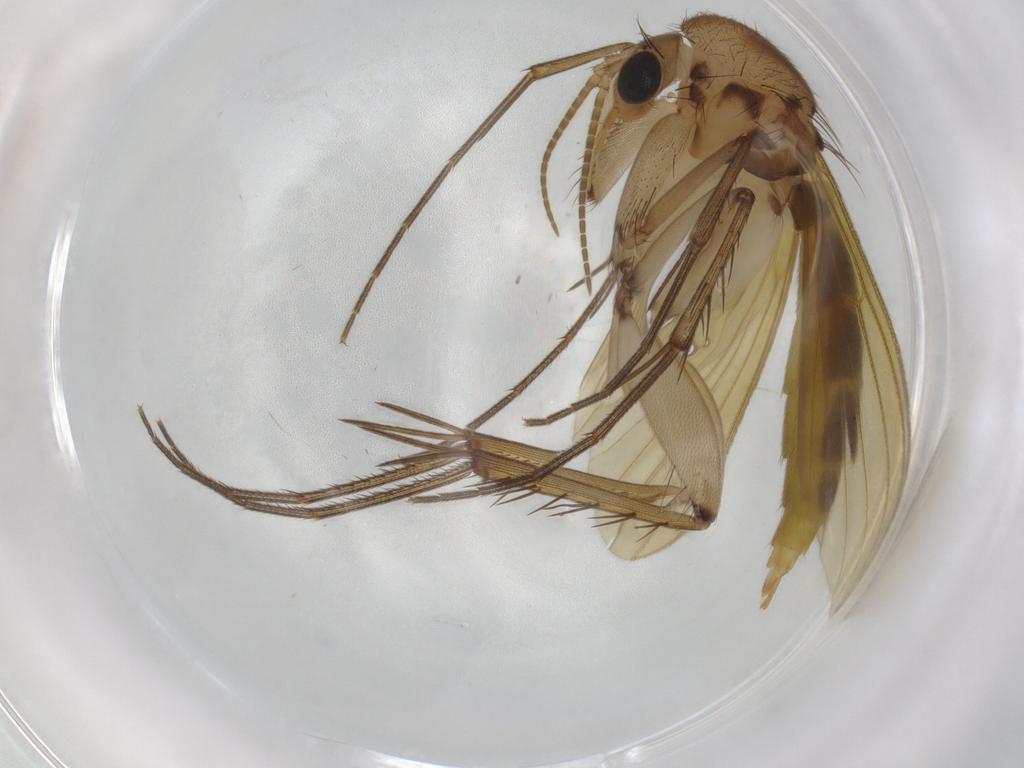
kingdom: Animalia
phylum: Arthropoda
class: Insecta
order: Diptera
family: Mycetophilidae
